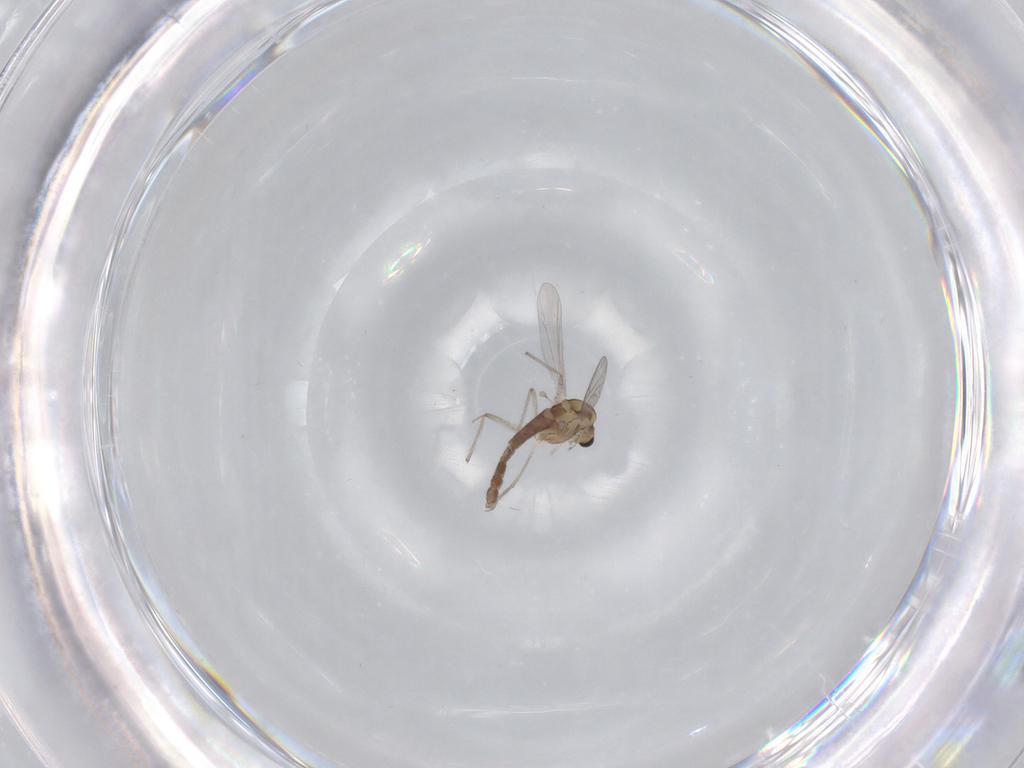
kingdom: Animalia
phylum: Arthropoda
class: Insecta
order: Diptera
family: Chironomidae
